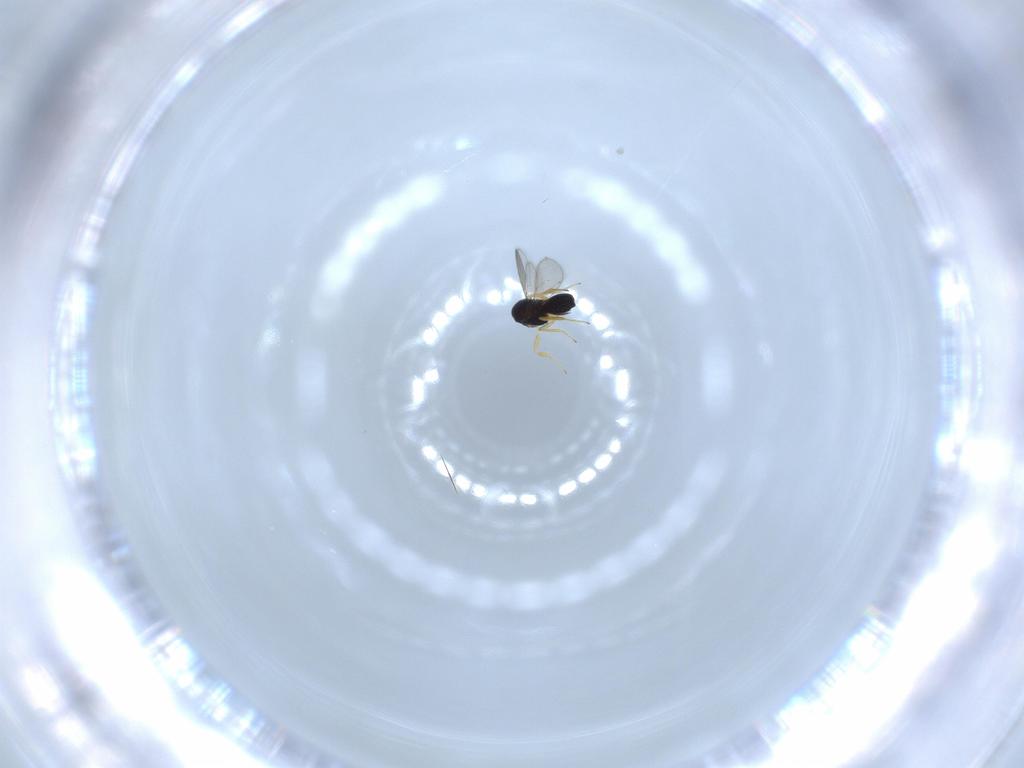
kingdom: Animalia
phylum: Arthropoda
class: Insecta
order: Hymenoptera
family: Scelionidae
